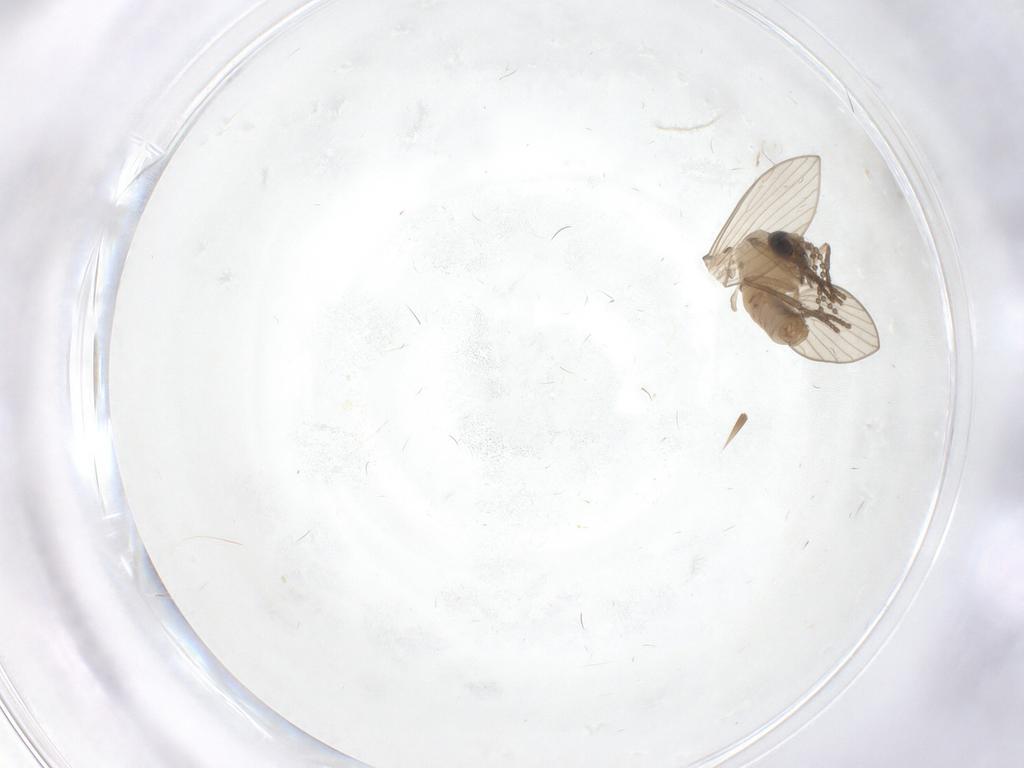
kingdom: Animalia
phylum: Arthropoda
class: Insecta
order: Diptera
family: Psychodidae
